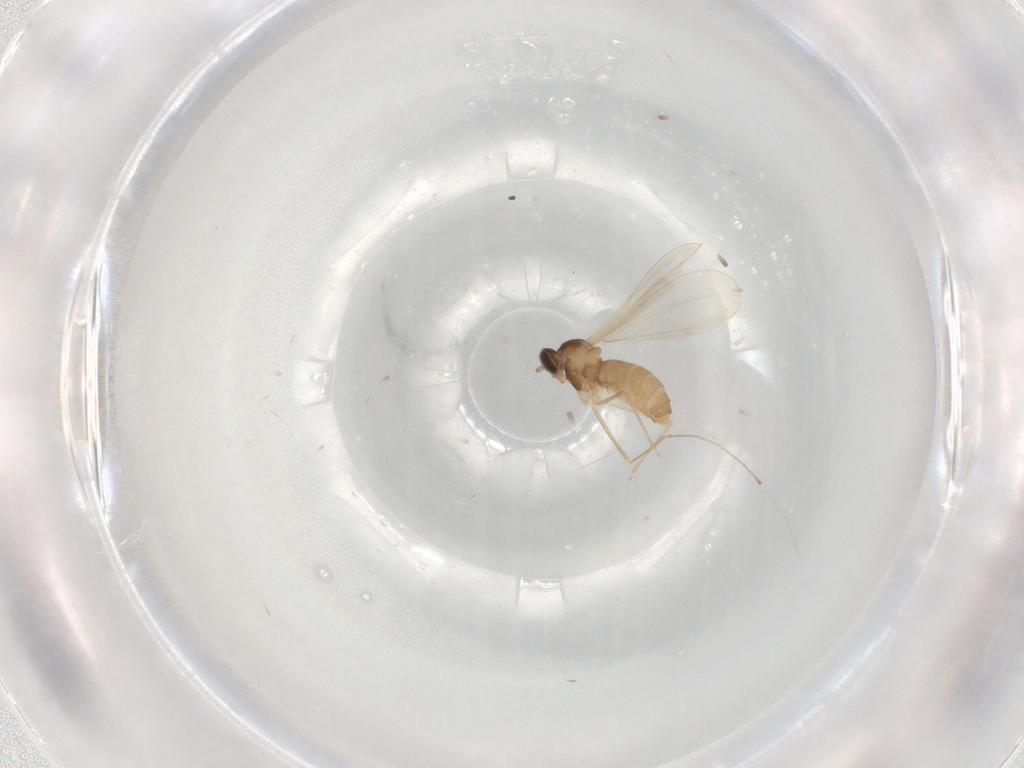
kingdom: Animalia
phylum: Arthropoda
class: Insecta
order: Diptera
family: Cecidomyiidae
